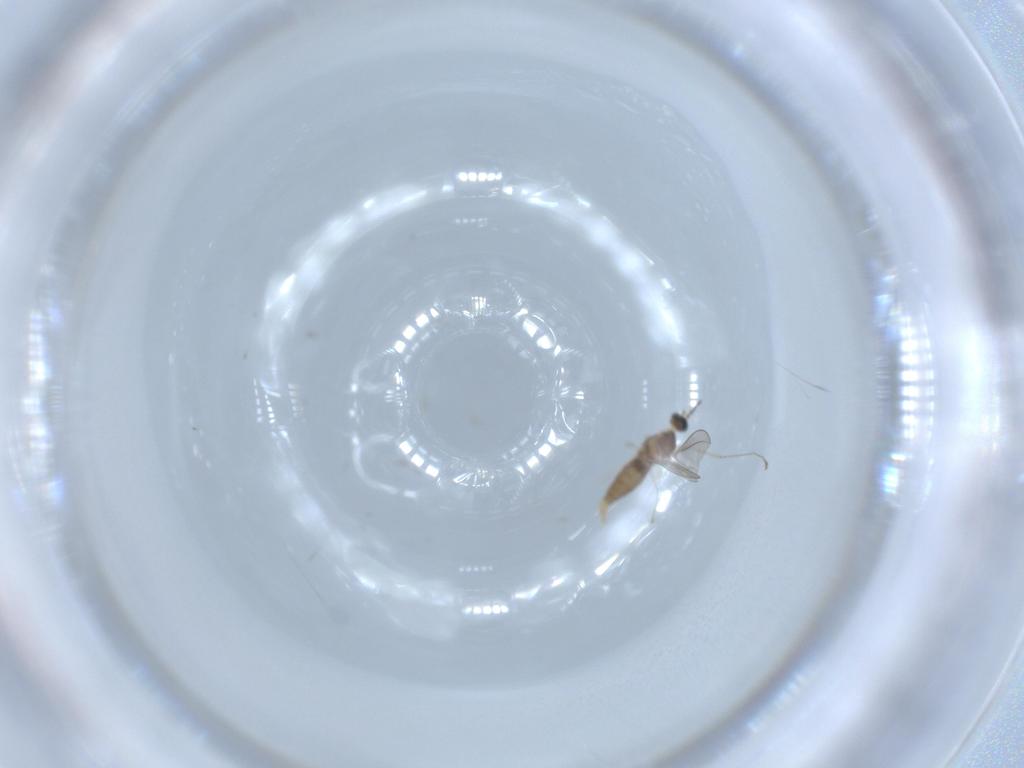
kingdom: Animalia
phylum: Arthropoda
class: Insecta
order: Diptera
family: Cecidomyiidae
